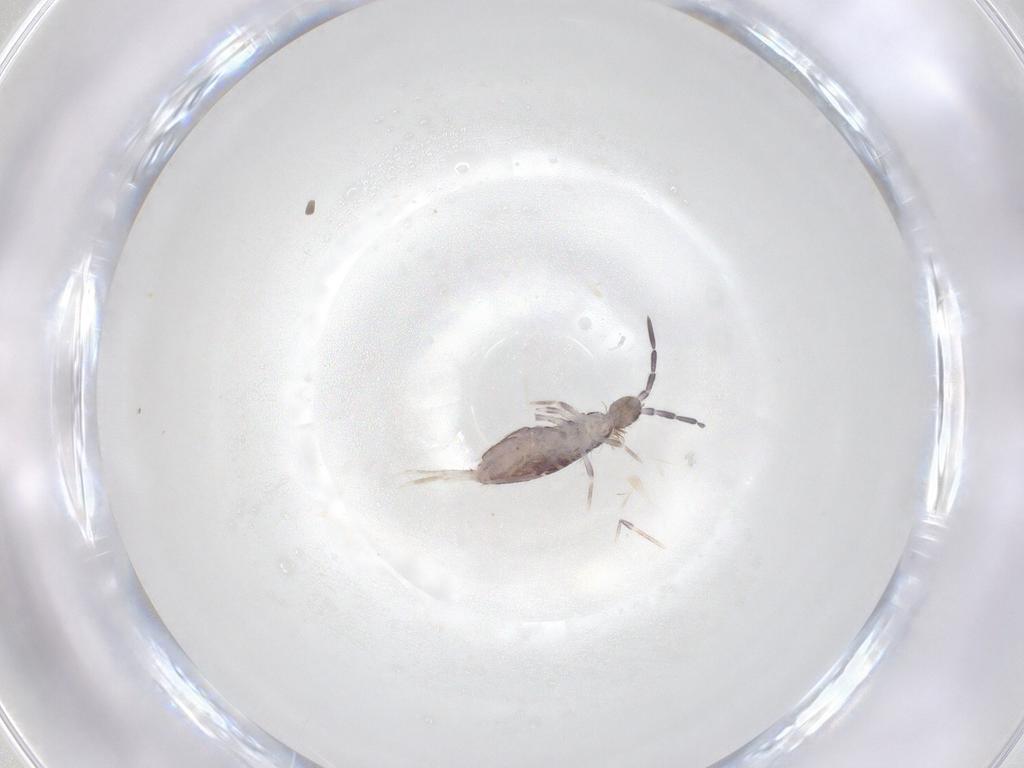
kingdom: Animalia
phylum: Arthropoda
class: Collembola
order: Poduromorpha
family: Hypogastruridae
